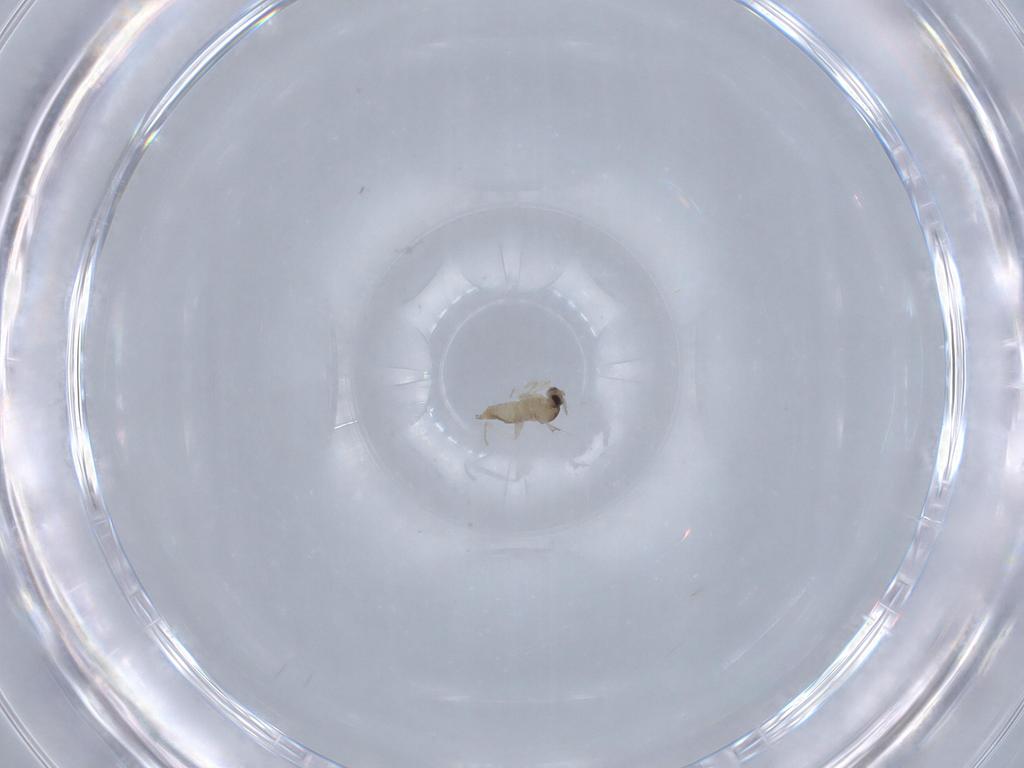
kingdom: Animalia
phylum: Arthropoda
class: Insecta
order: Diptera
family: Cecidomyiidae
